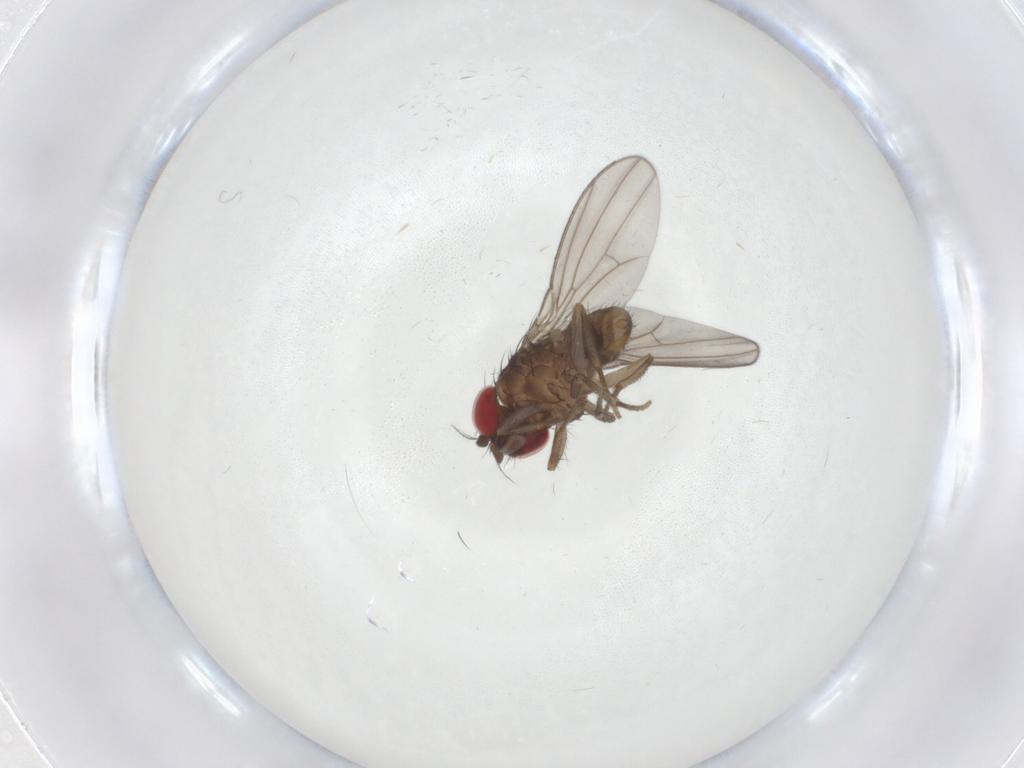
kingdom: Animalia
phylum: Arthropoda
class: Insecta
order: Diptera
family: Drosophilidae
